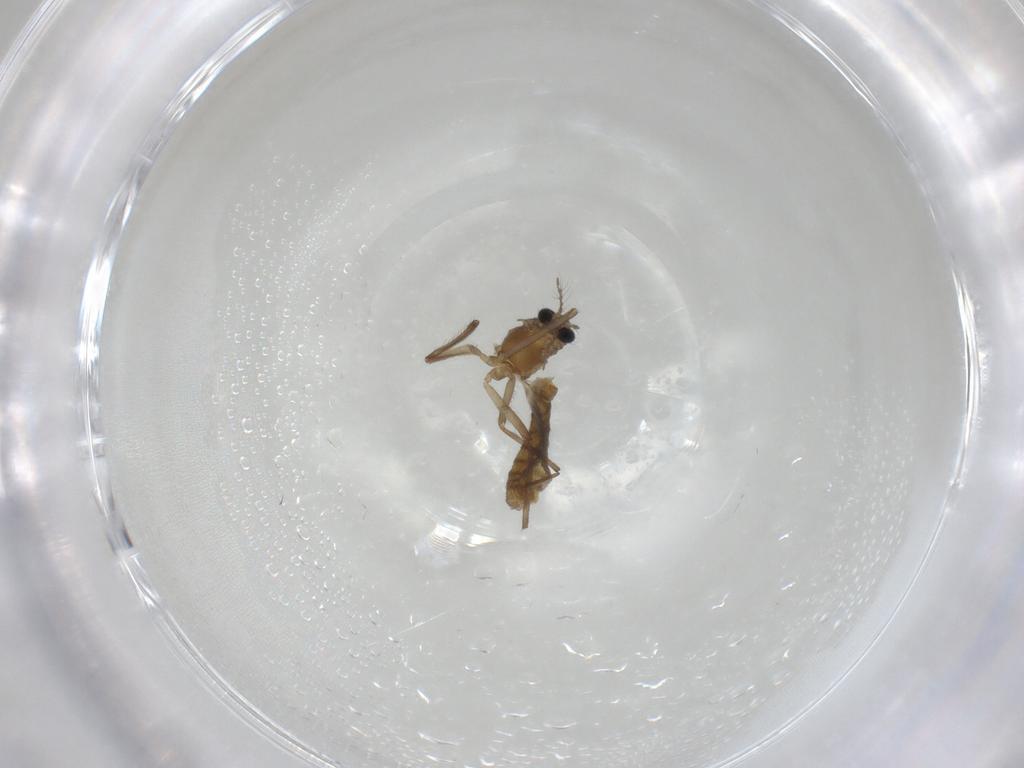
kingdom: Animalia
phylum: Arthropoda
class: Insecta
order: Diptera
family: Chironomidae
